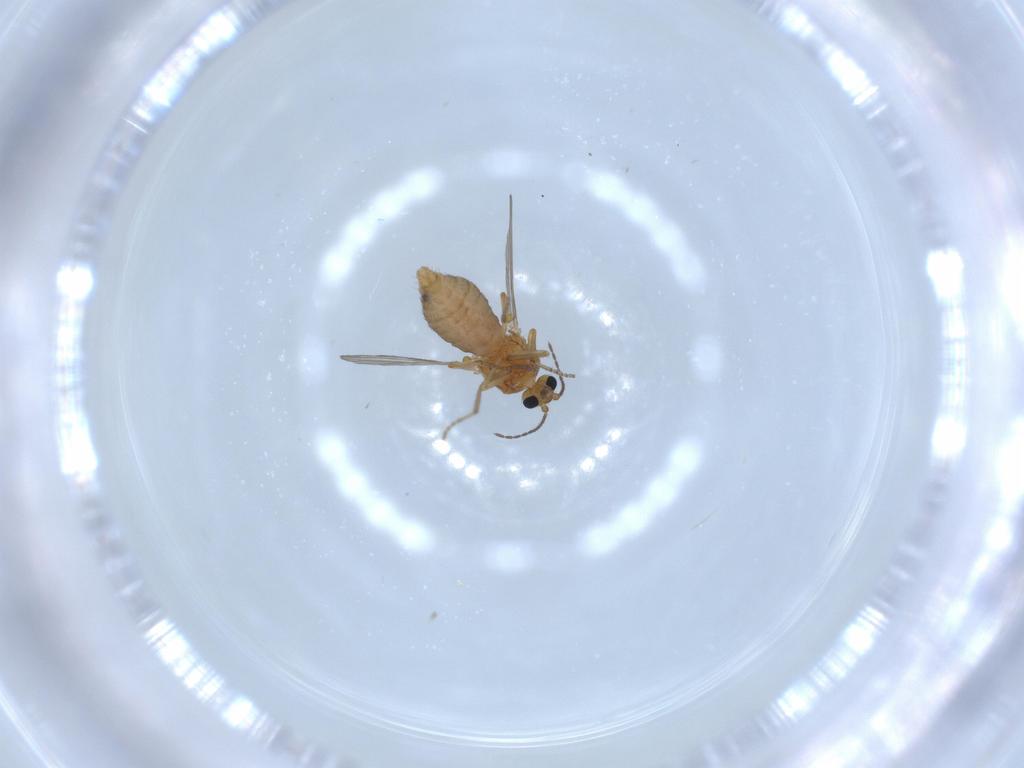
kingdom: Animalia
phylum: Arthropoda
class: Insecta
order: Diptera
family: Ceratopogonidae
